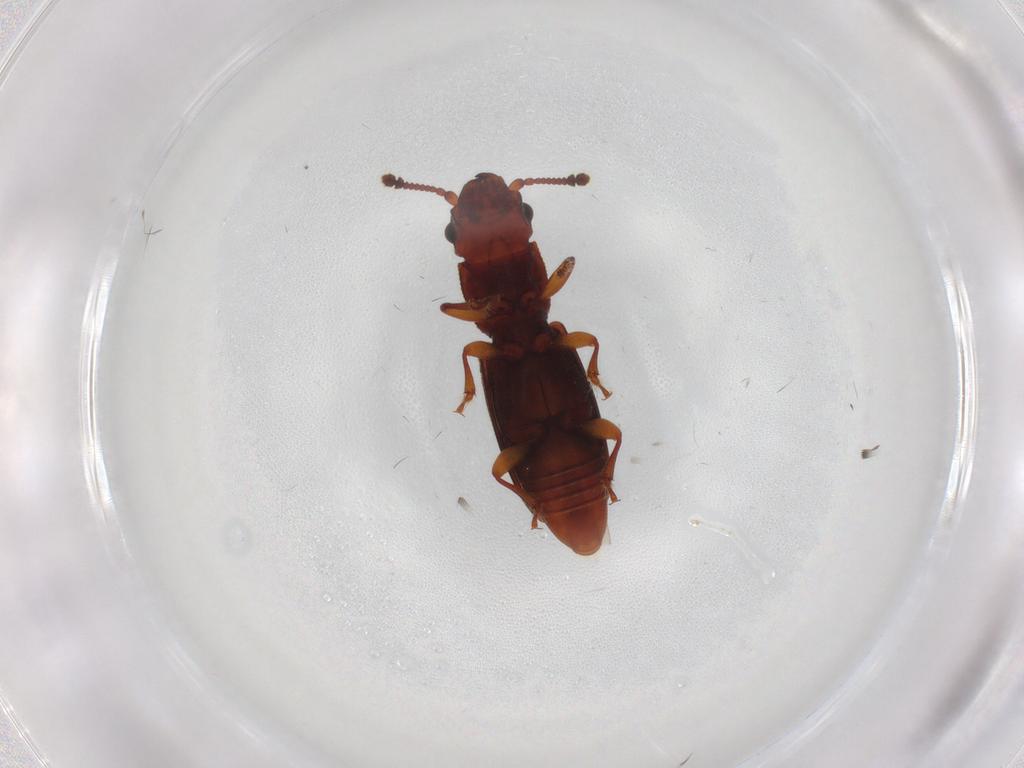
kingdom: Animalia
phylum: Arthropoda
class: Insecta
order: Coleoptera
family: Monotomidae
